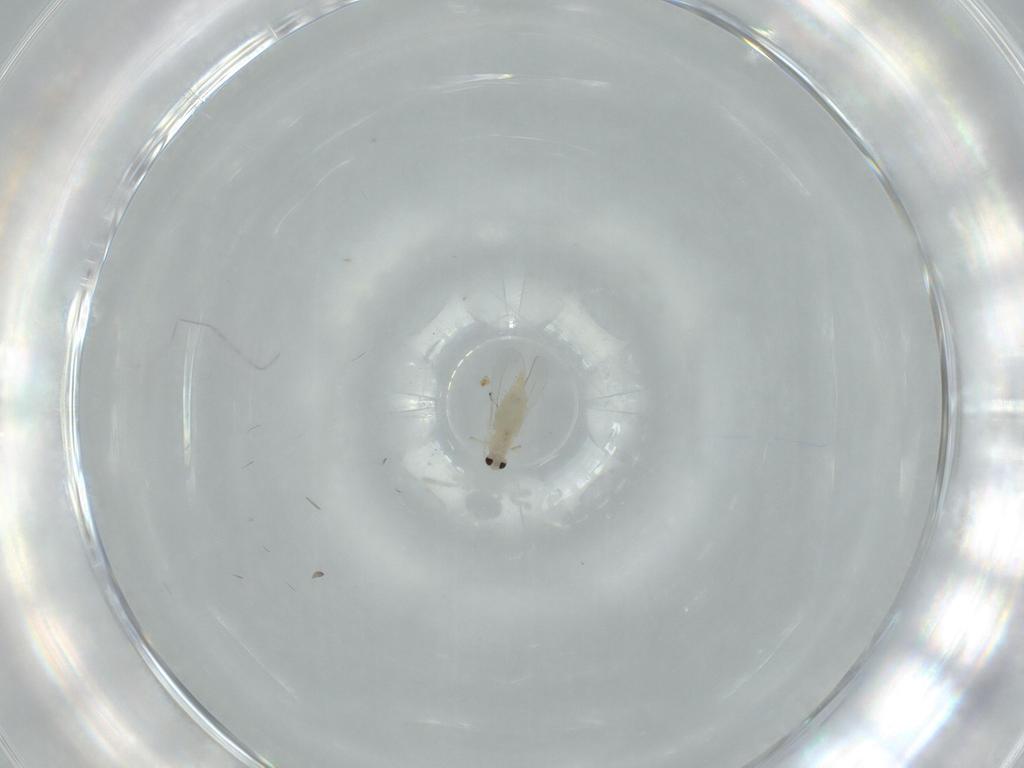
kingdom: Animalia
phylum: Arthropoda
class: Insecta
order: Diptera
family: Cecidomyiidae
